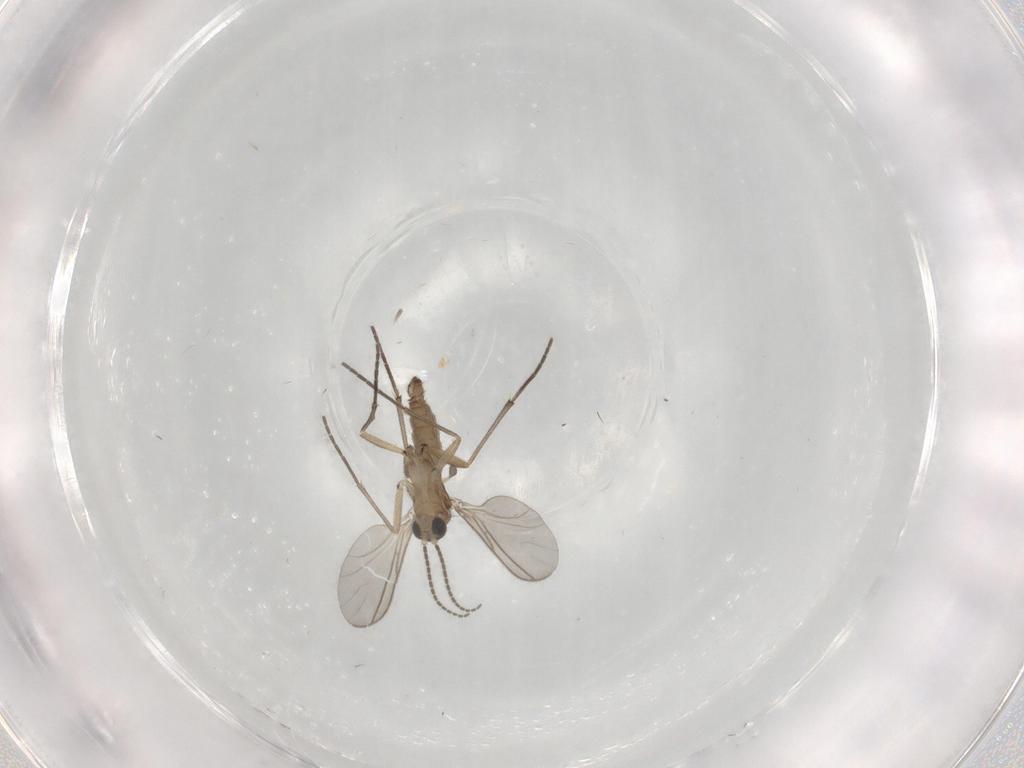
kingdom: Animalia
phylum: Arthropoda
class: Insecta
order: Diptera
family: Sciaridae
